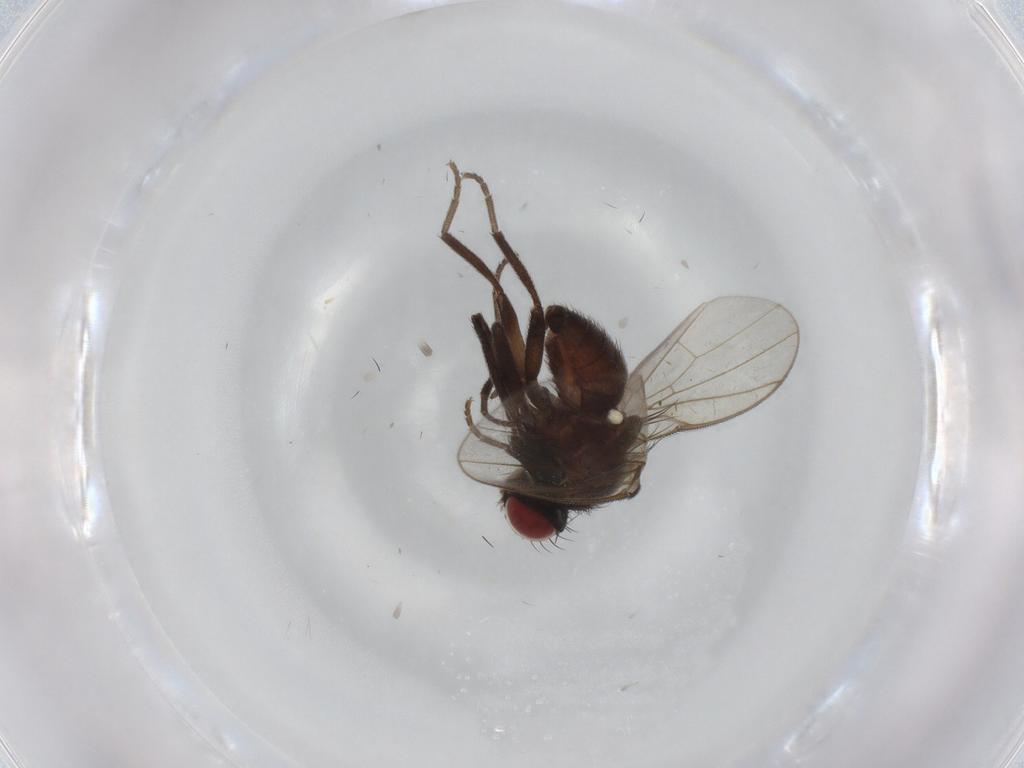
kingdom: Animalia
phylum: Arthropoda
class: Insecta
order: Diptera
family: Limoniidae
